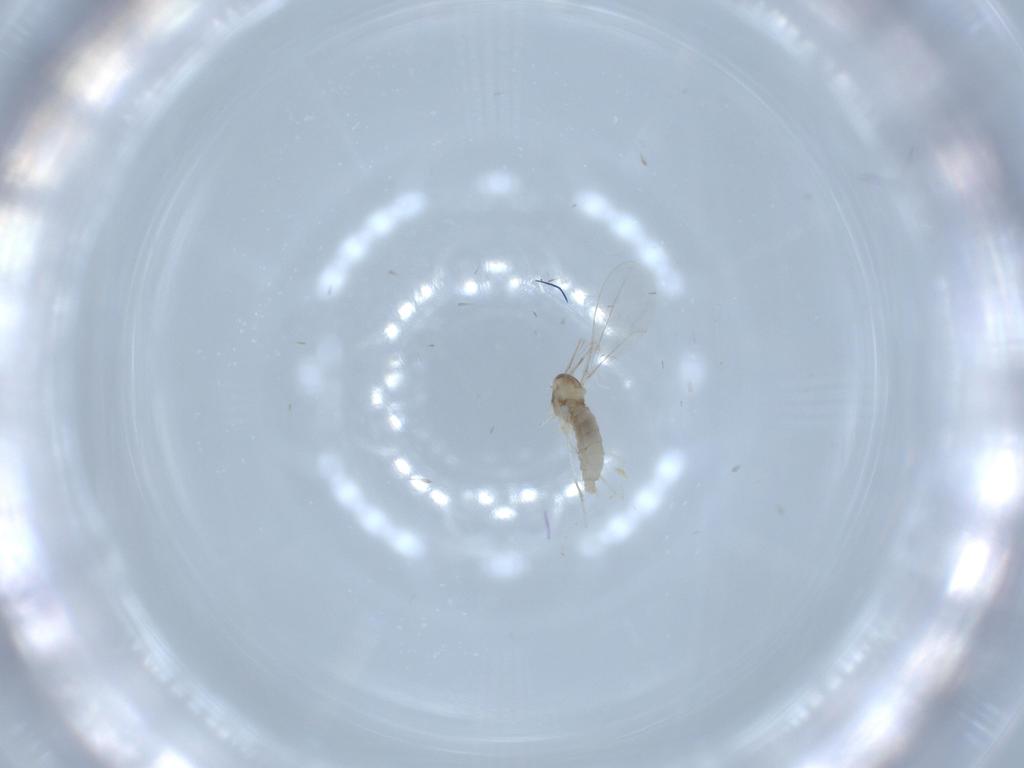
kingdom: Animalia
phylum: Arthropoda
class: Insecta
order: Diptera
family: Cecidomyiidae
